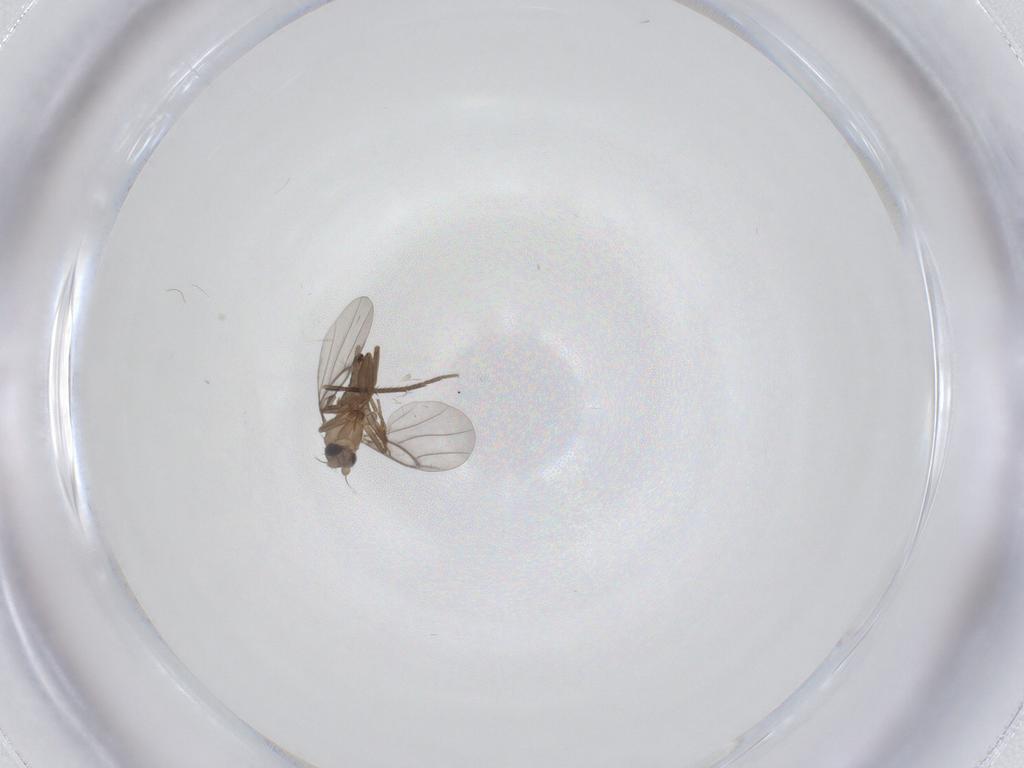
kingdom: Animalia
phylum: Arthropoda
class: Insecta
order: Diptera
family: Mycetophilidae
